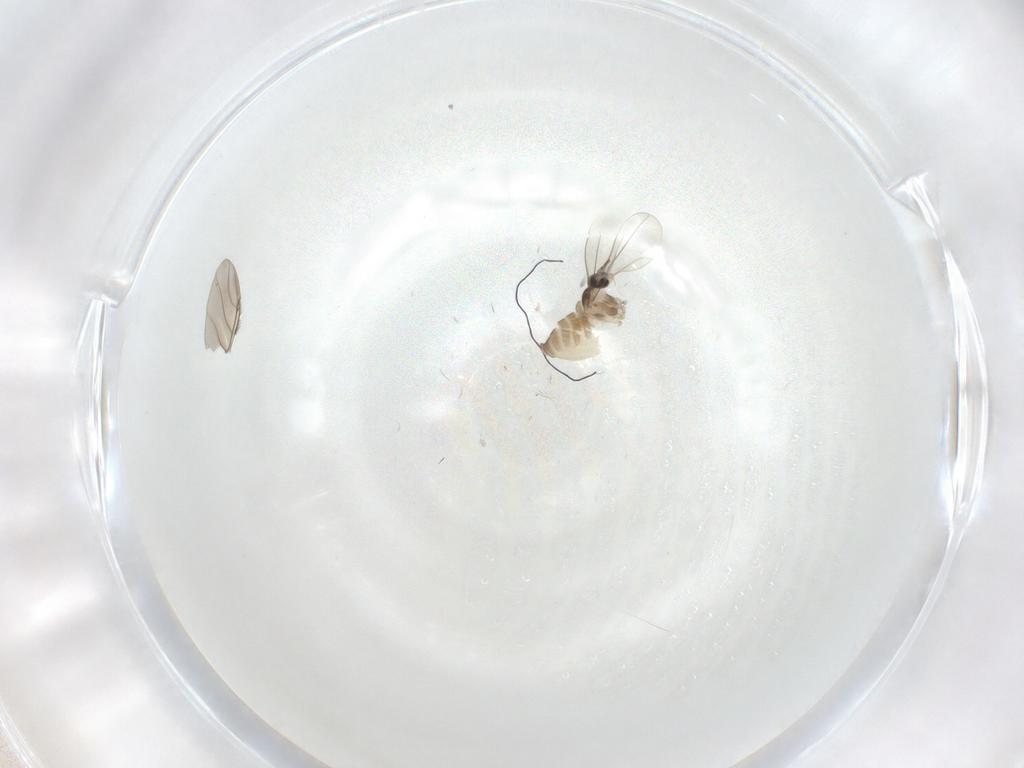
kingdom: Animalia
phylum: Arthropoda
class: Insecta
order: Diptera
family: Cecidomyiidae
